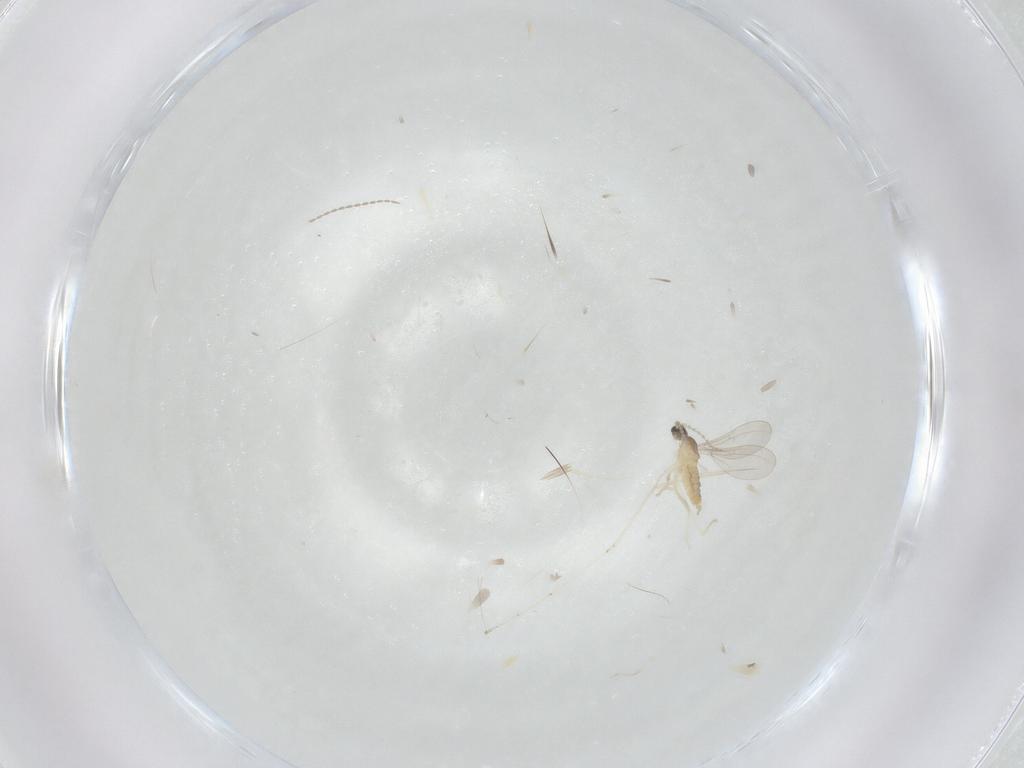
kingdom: Animalia
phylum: Arthropoda
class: Insecta
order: Diptera
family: Cecidomyiidae
